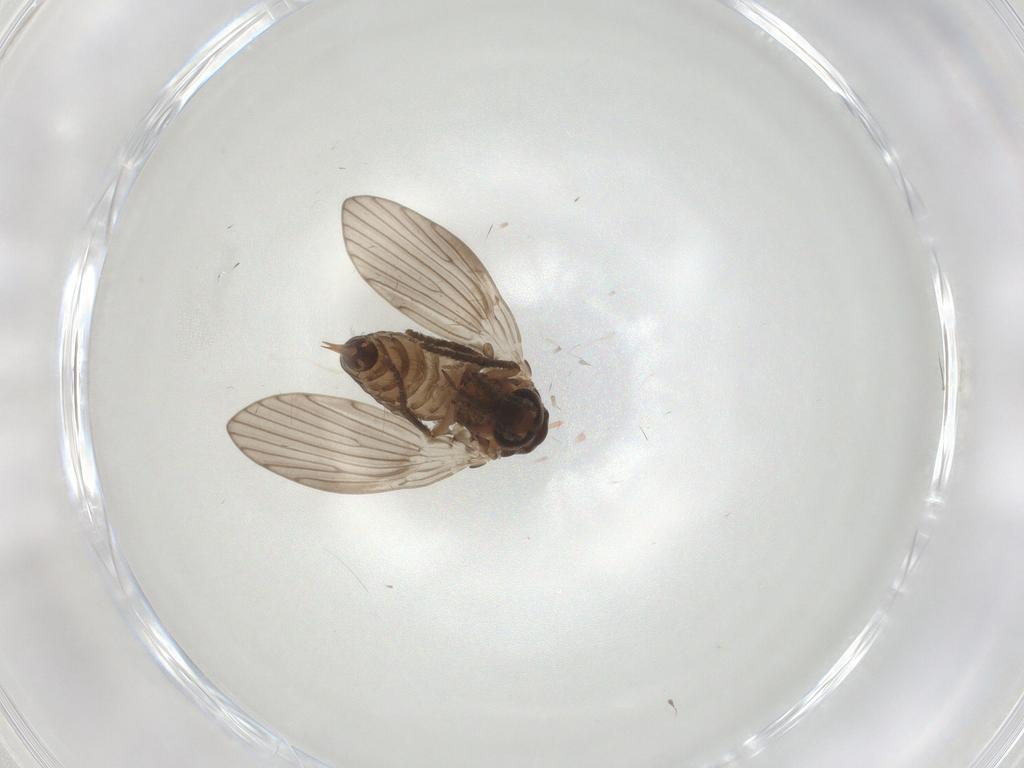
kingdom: Animalia
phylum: Arthropoda
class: Insecta
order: Diptera
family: Psychodidae
